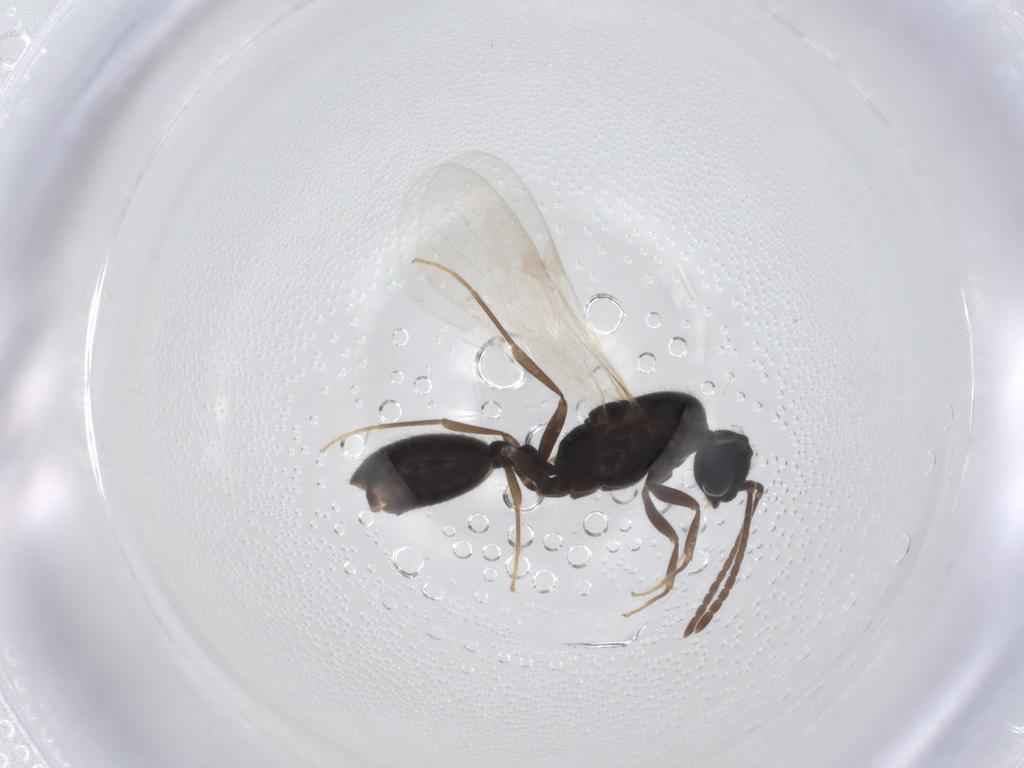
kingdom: Animalia
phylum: Arthropoda
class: Insecta
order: Hymenoptera
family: Formicidae
